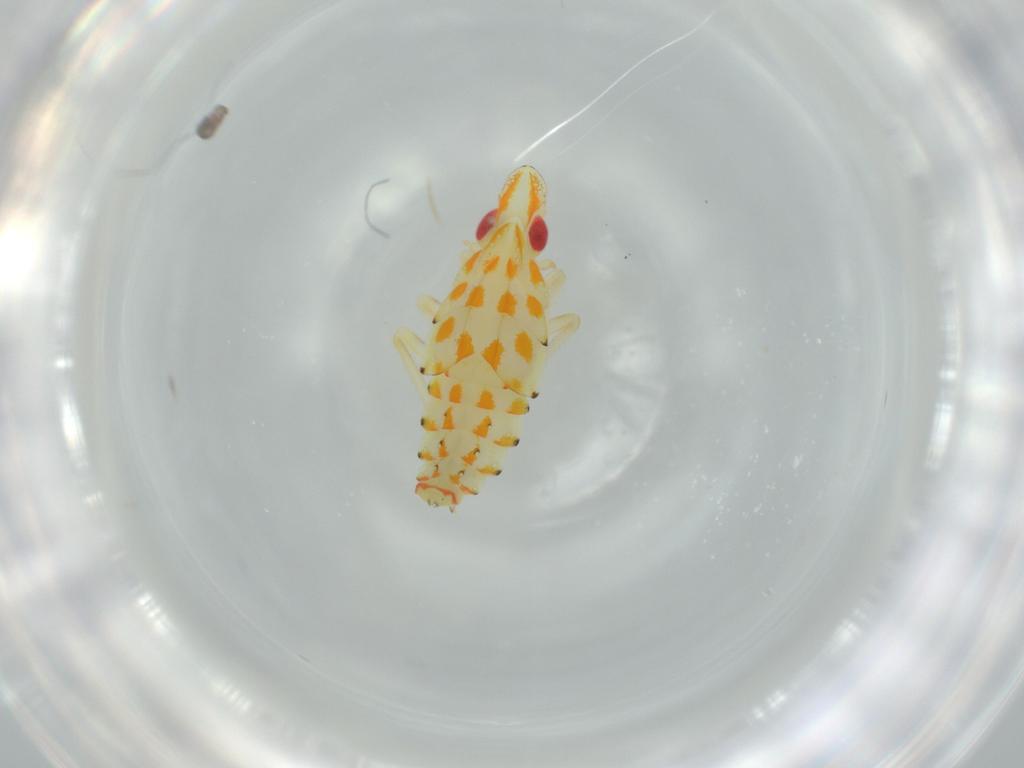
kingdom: Animalia
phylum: Arthropoda
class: Insecta
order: Hemiptera
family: Tropiduchidae
